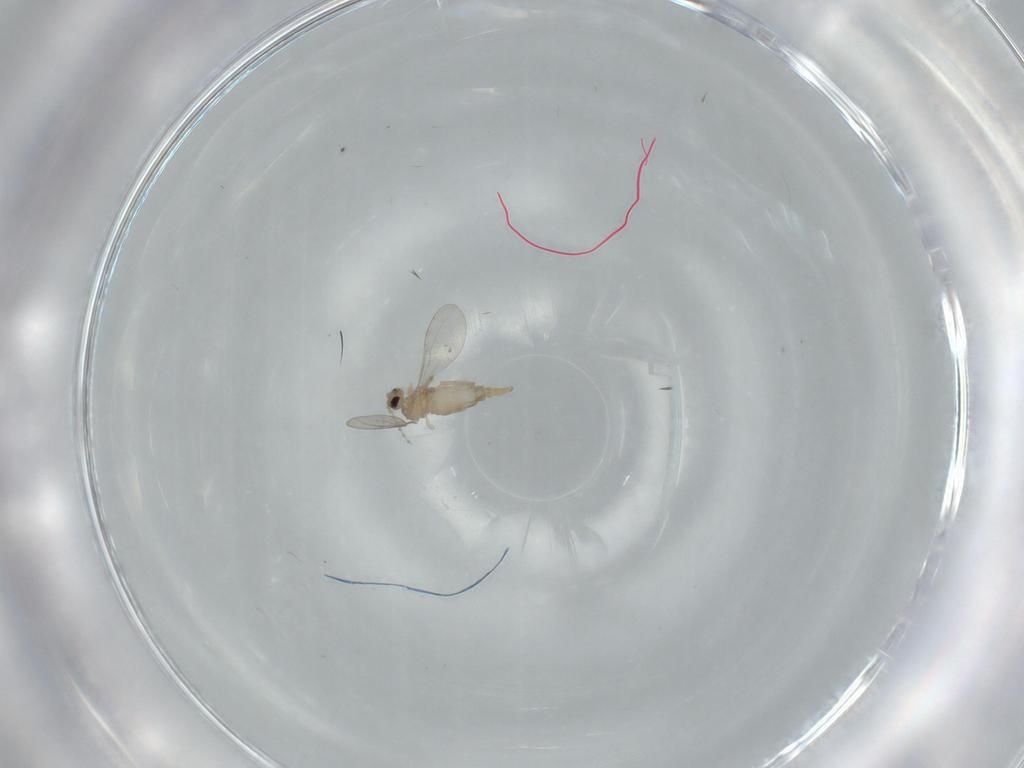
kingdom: Animalia
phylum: Arthropoda
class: Insecta
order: Diptera
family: Cecidomyiidae
